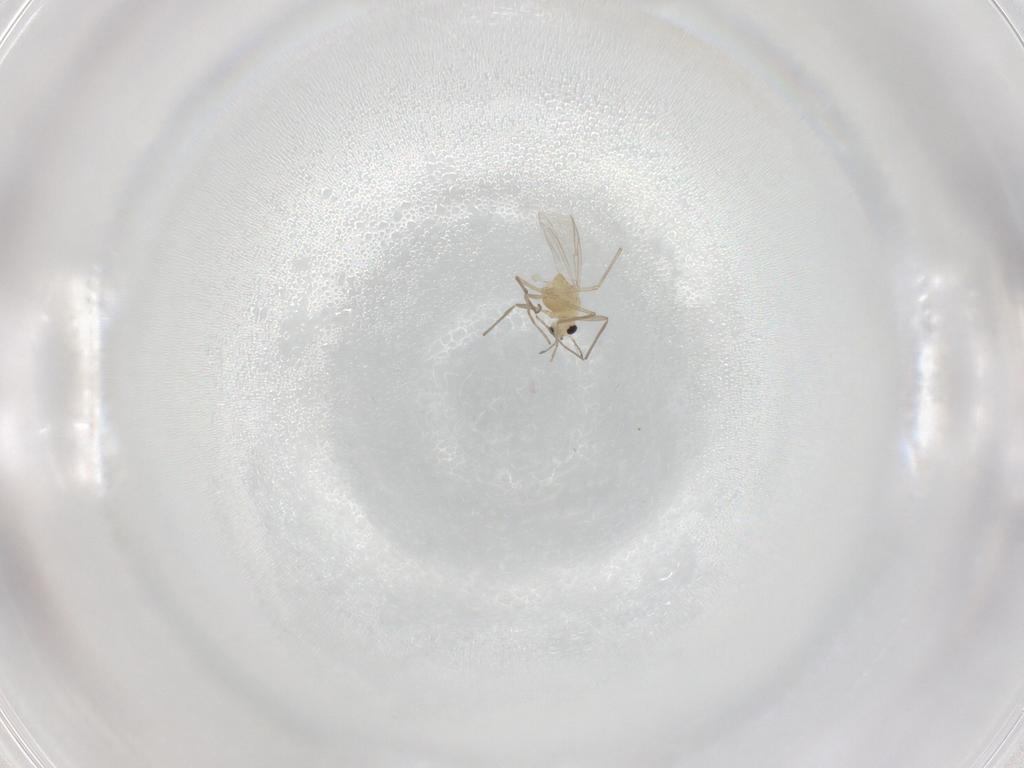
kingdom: Animalia
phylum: Arthropoda
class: Insecta
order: Diptera
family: Chironomidae
